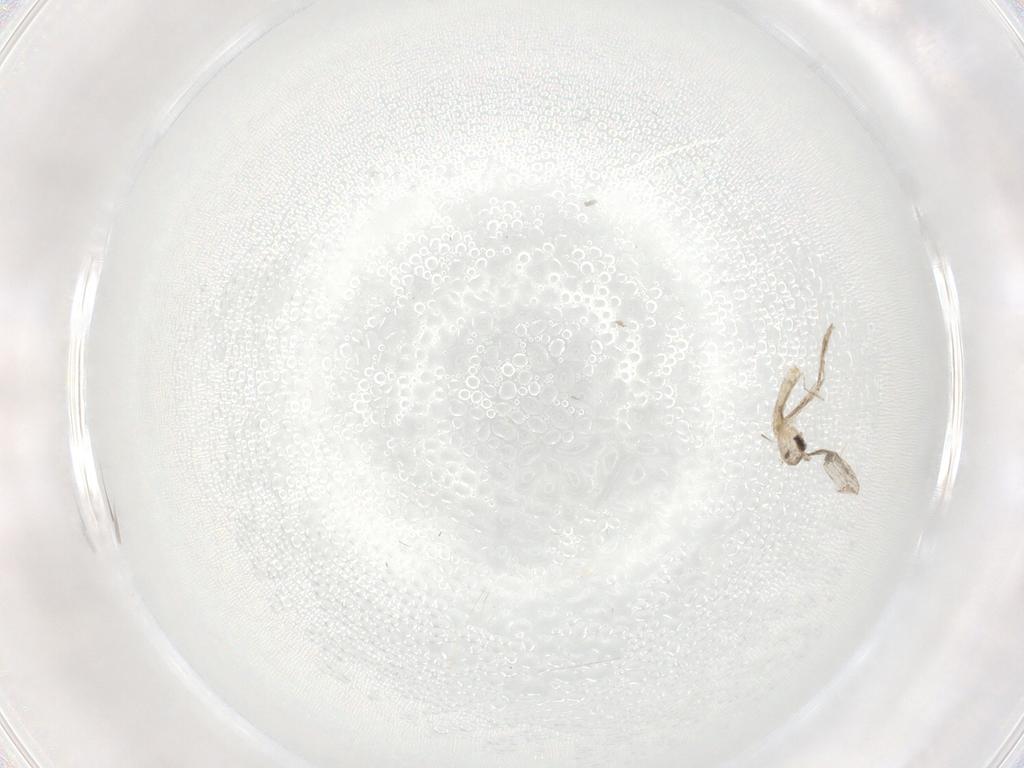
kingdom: Animalia
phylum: Arthropoda
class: Insecta
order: Diptera
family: Cecidomyiidae
